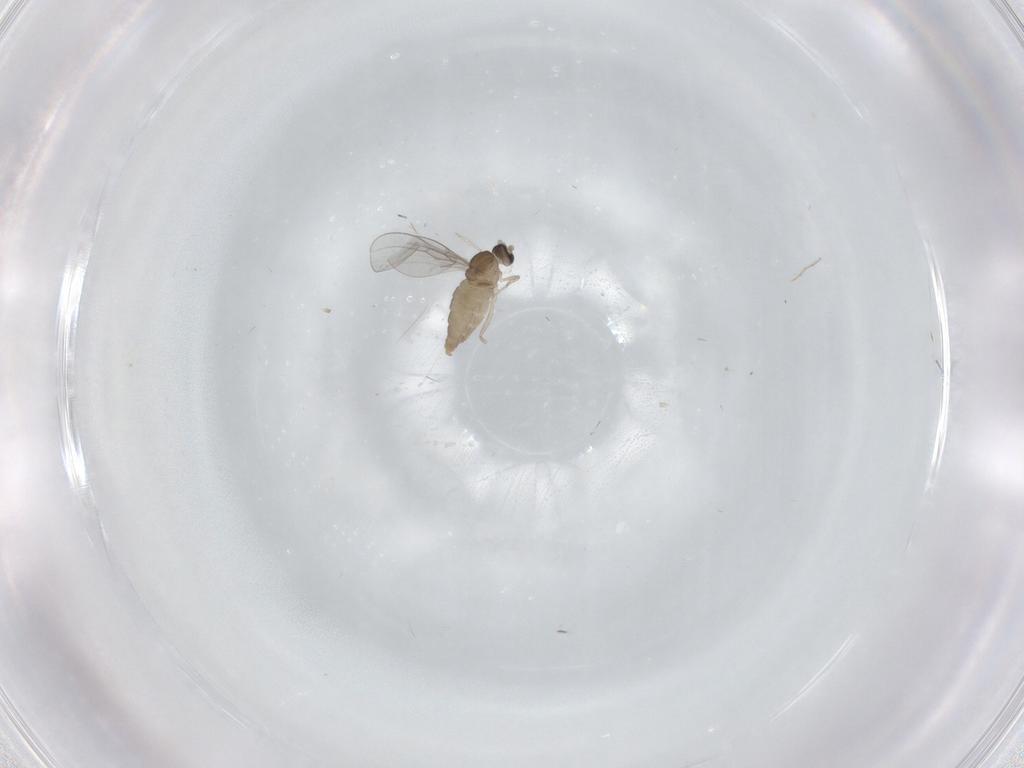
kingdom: Animalia
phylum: Arthropoda
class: Insecta
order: Diptera
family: Cecidomyiidae
